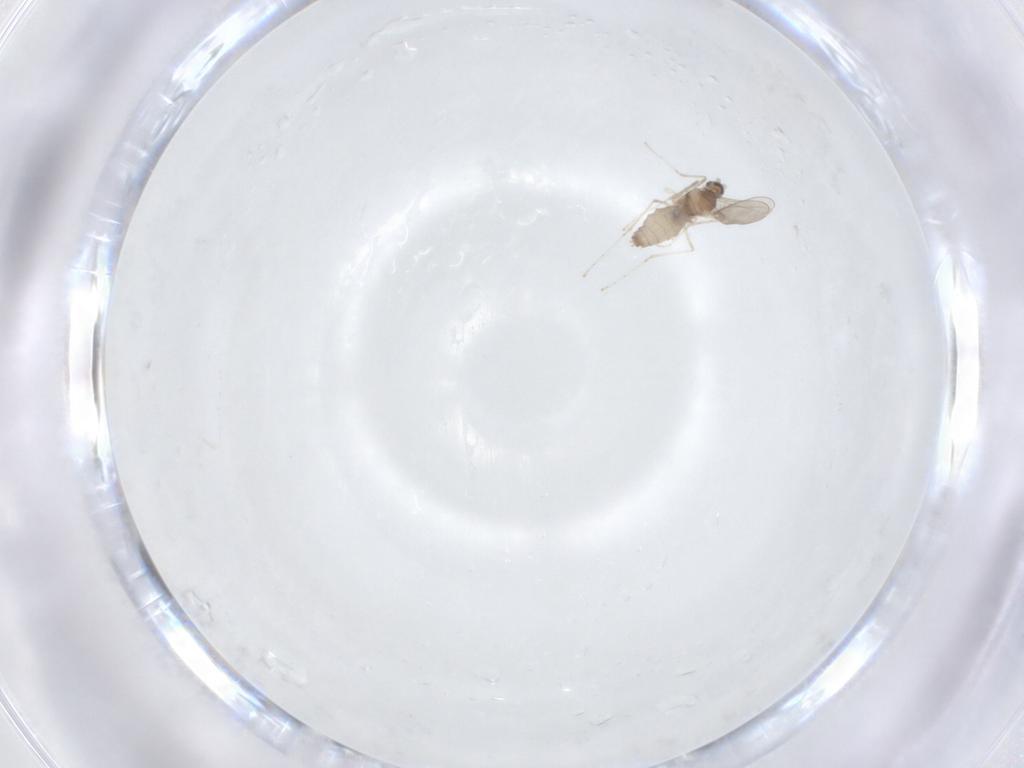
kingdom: Animalia
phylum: Arthropoda
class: Insecta
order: Diptera
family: Cecidomyiidae
